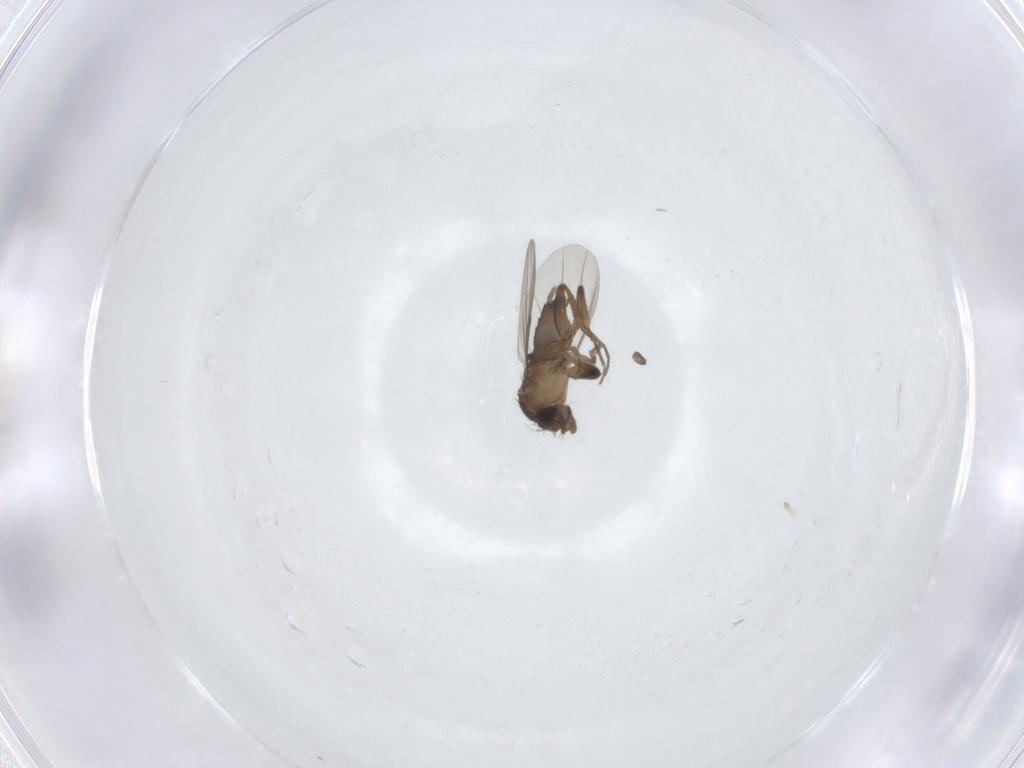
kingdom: Animalia
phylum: Arthropoda
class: Insecta
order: Diptera
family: Phoridae
